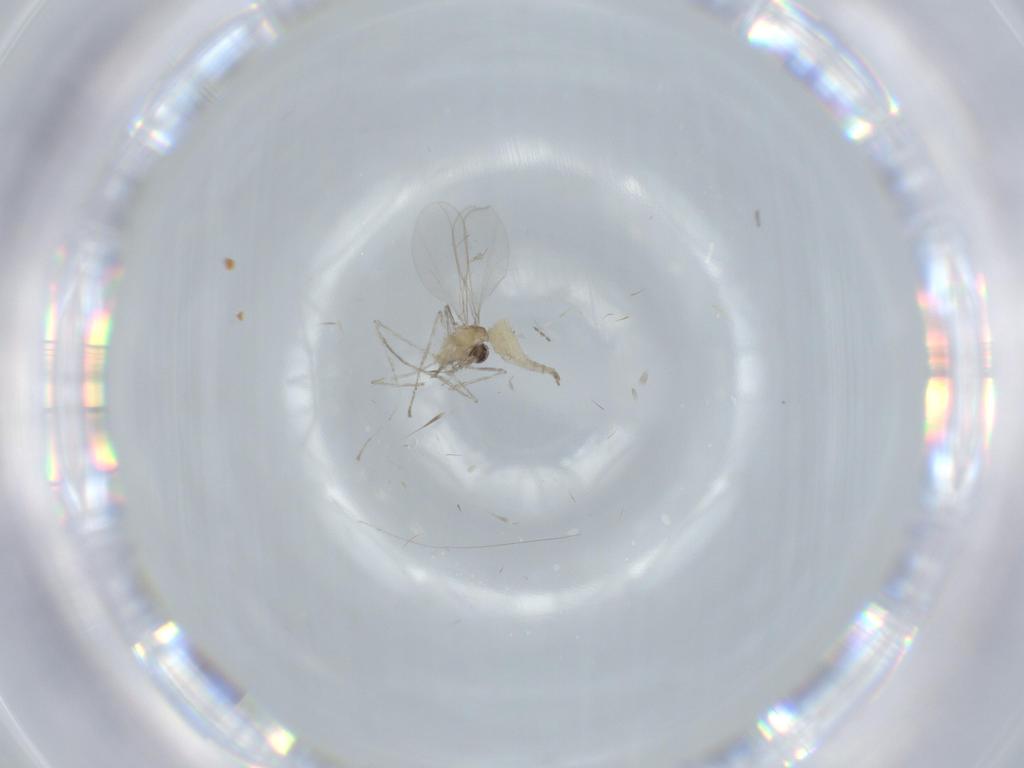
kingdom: Animalia
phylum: Arthropoda
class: Insecta
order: Diptera
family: Cecidomyiidae
